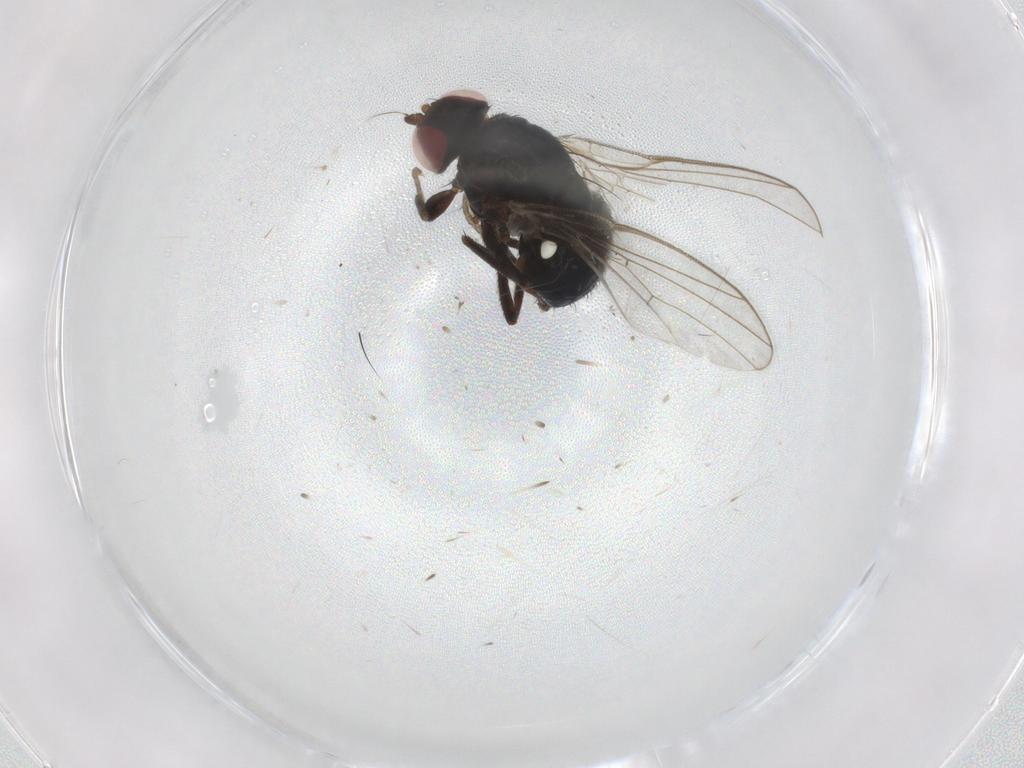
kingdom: Animalia
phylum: Arthropoda
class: Insecta
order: Diptera
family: Agromyzidae
